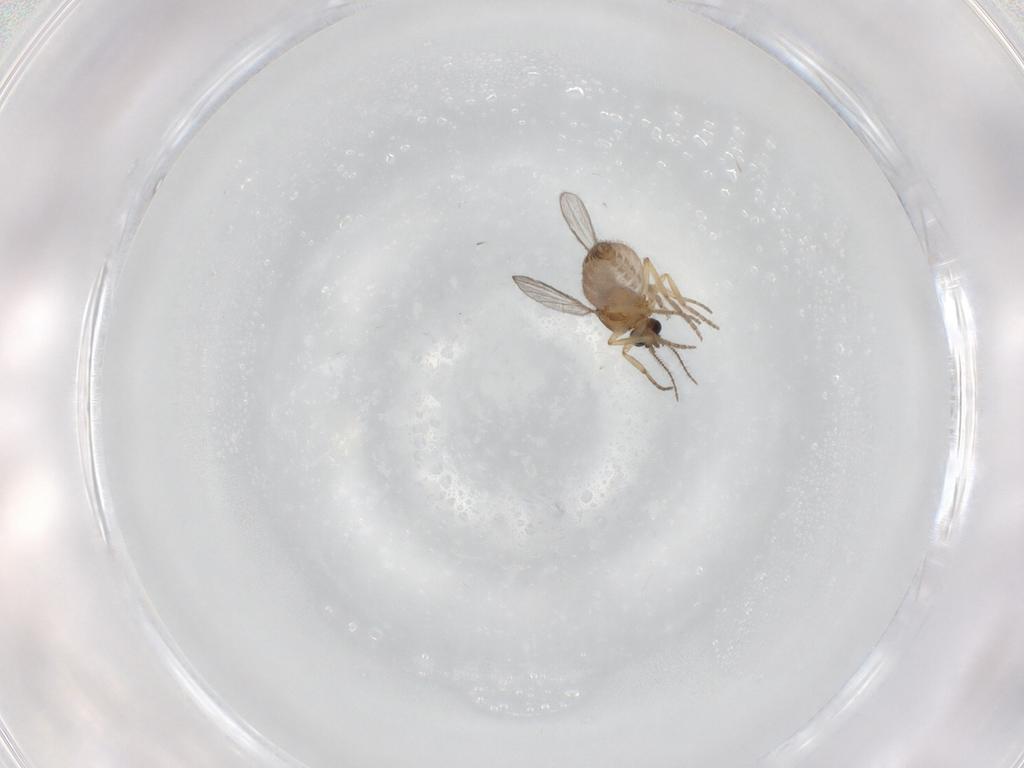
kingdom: Animalia
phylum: Arthropoda
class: Insecta
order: Diptera
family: Ceratopogonidae
